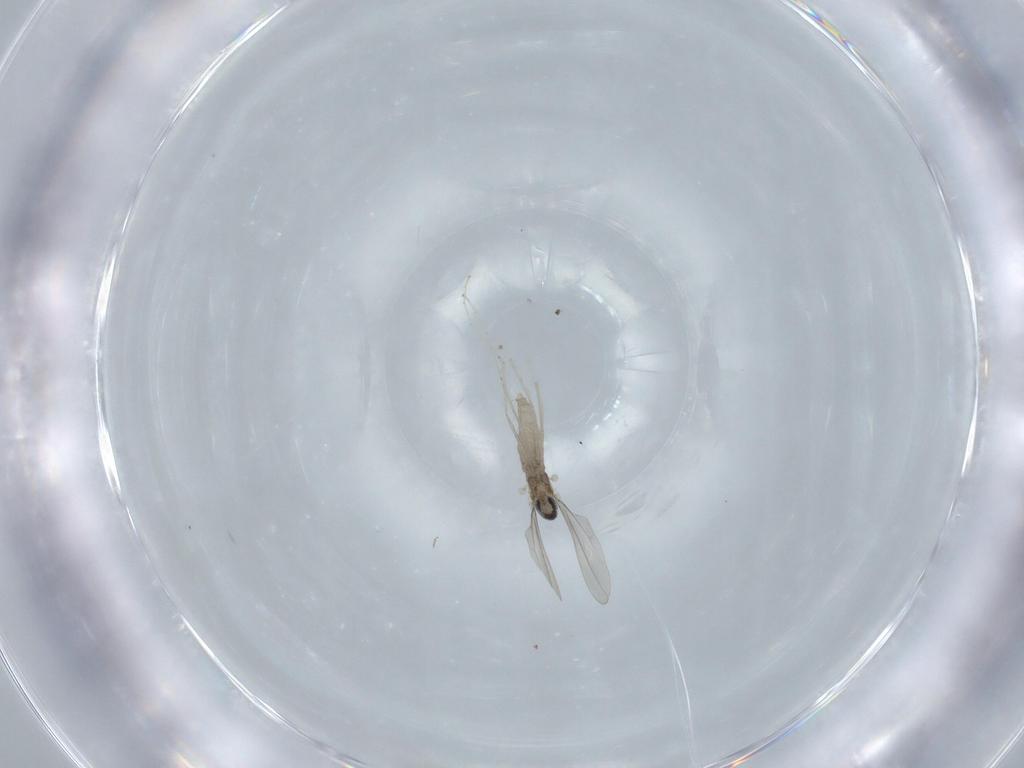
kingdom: Animalia
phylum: Arthropoda
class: Insecta
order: Diptera
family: Cecidomyiidae
